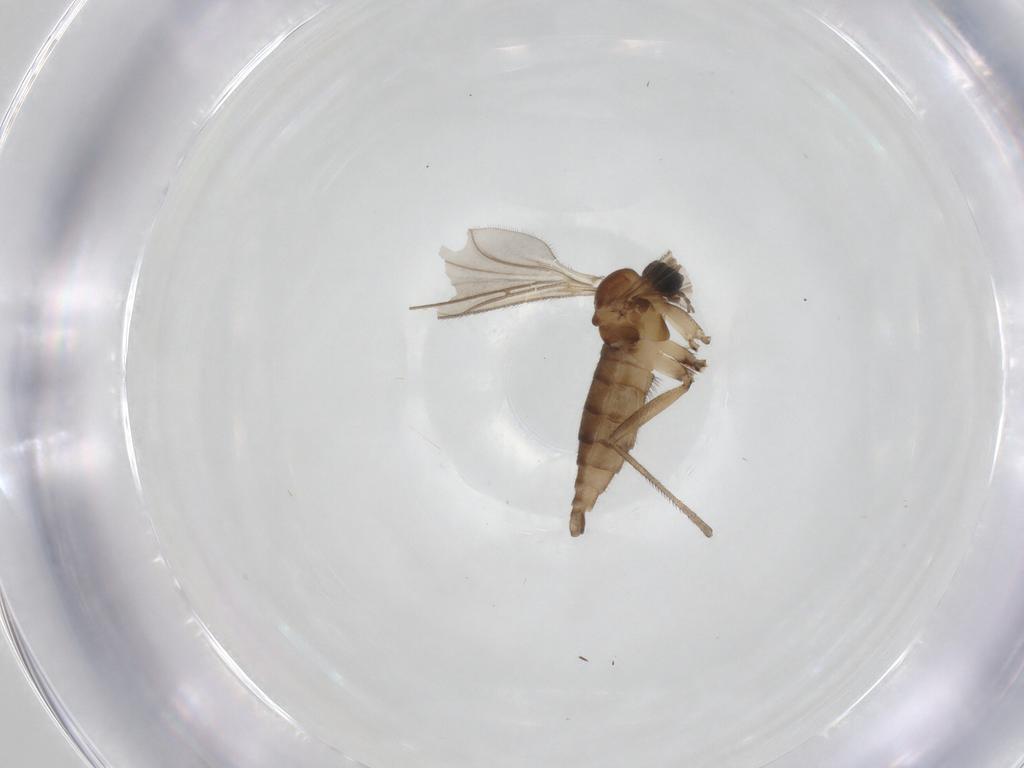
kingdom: Animalia
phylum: Arthropoda
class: Insecta
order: Diptera
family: Sciaridae
